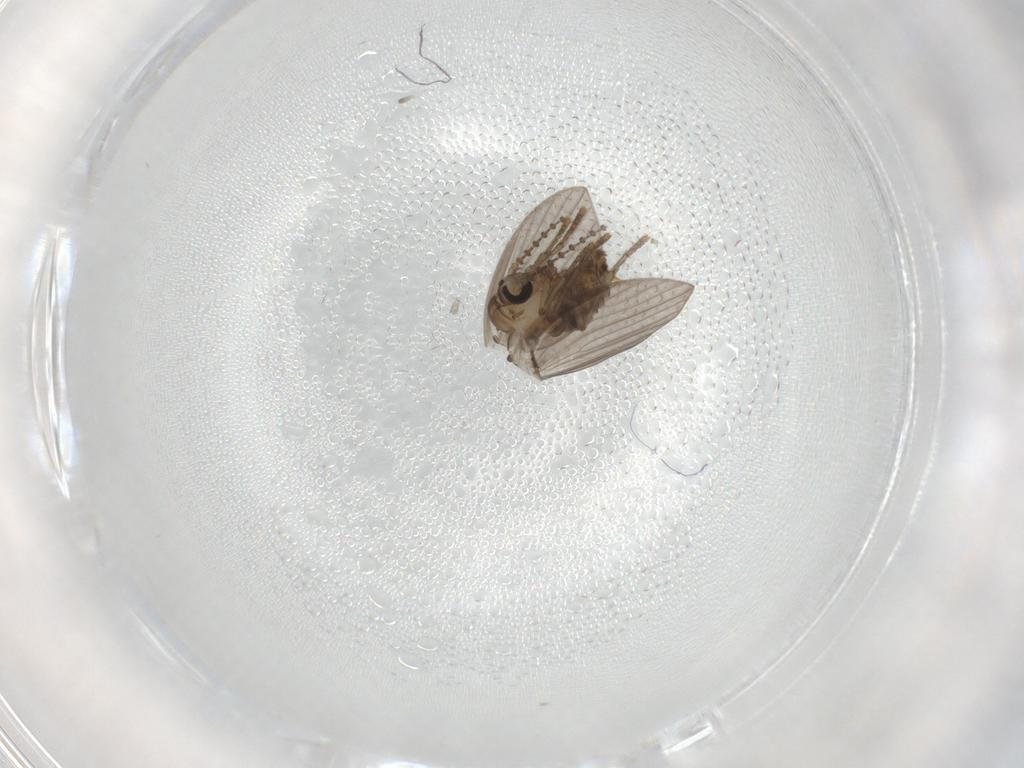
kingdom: Animalia
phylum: Arthropoda
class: Insecta
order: Diptera
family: Psychodidae
